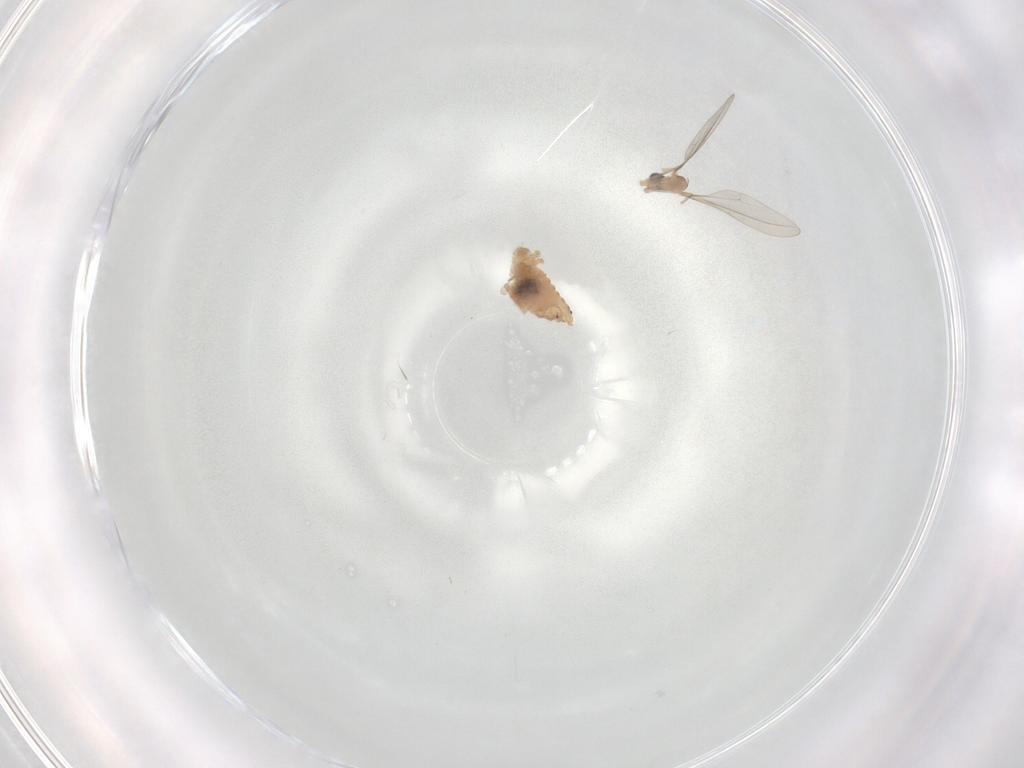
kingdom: Animalia
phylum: Arthropoda
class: Insecta
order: Diptera
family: Cecidomyiidae
